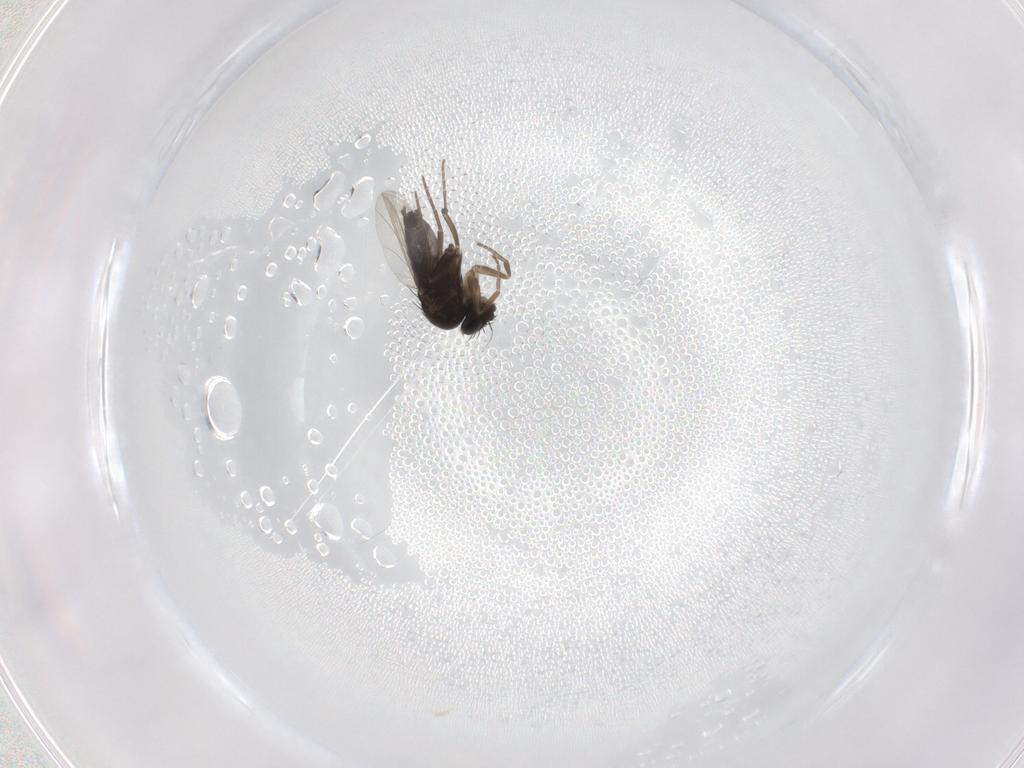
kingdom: Animalia
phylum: Arthropoda
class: Insecta
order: Diptera
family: Phoridae
